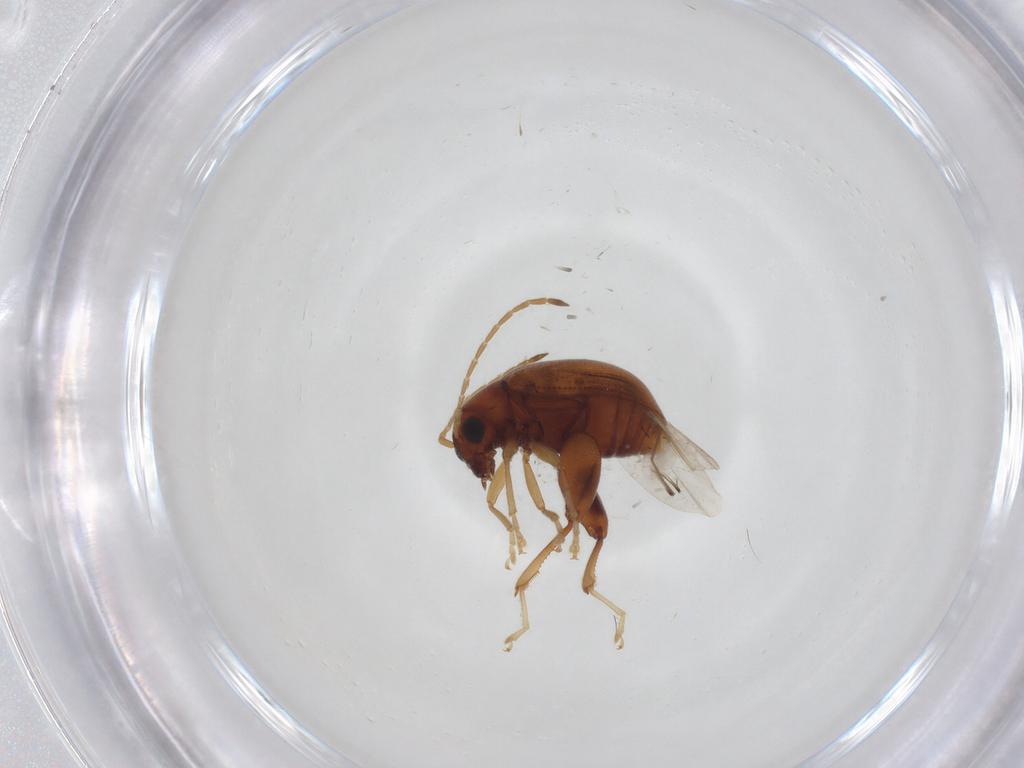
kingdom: Animalia
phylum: Arthropoda
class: Insecta
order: Coleoptera
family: Chrysomelidae
